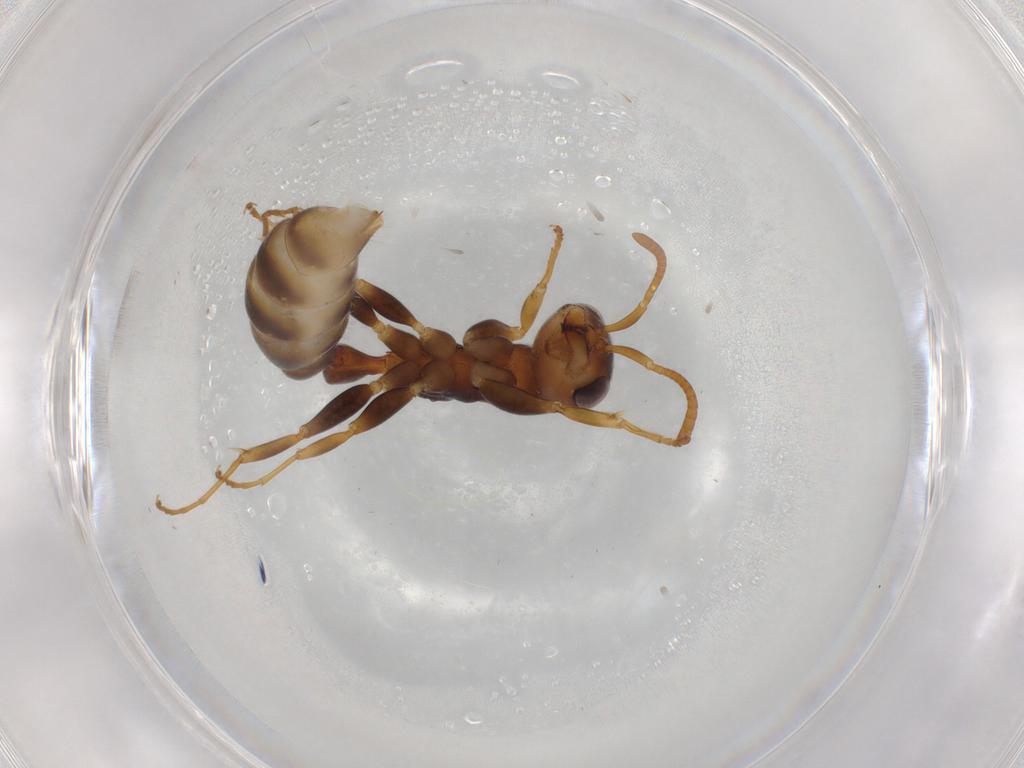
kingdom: Animalia
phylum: Arthropoda
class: Insecta
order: Hymenoptera
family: Formicidae
